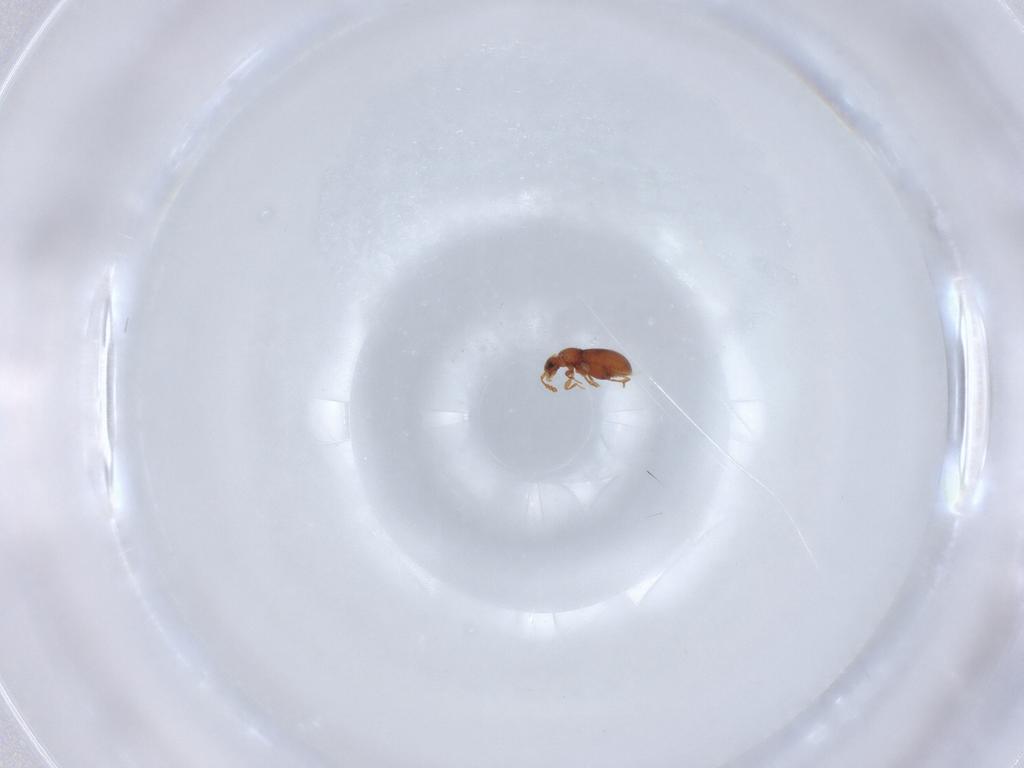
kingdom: Animalia
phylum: Arthropoda
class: Insecta
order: Coleoptera
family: Staphylinidae
